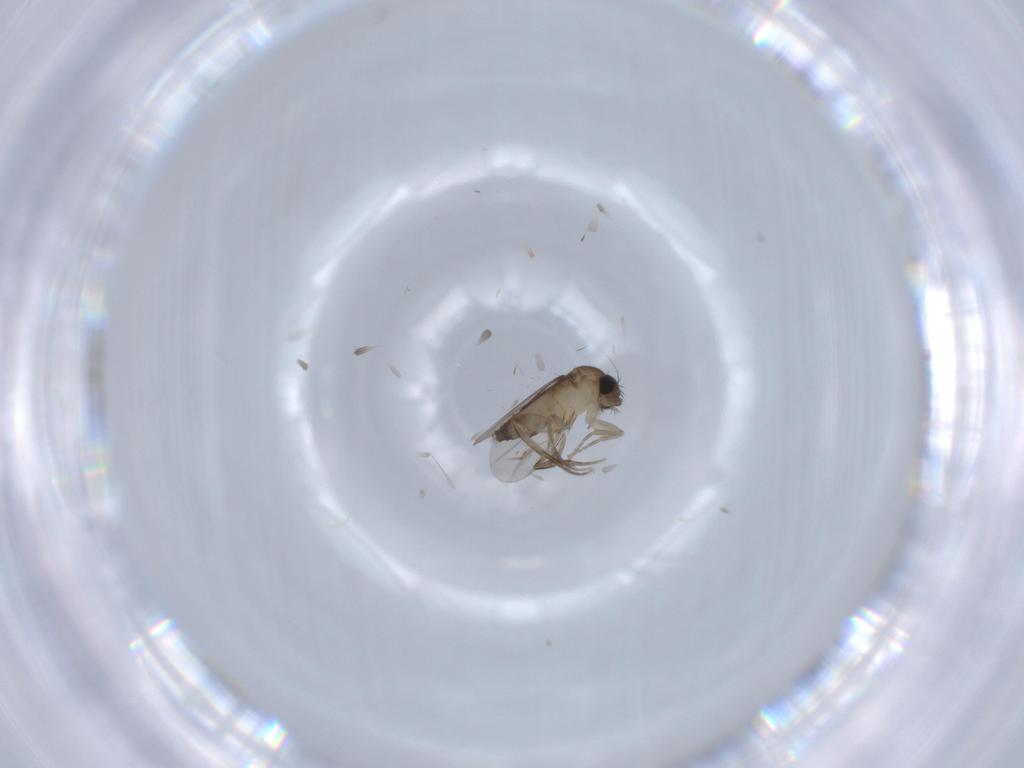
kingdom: Animalia
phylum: Arthropoda
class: Insecta
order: Diptera
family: Phoridae
